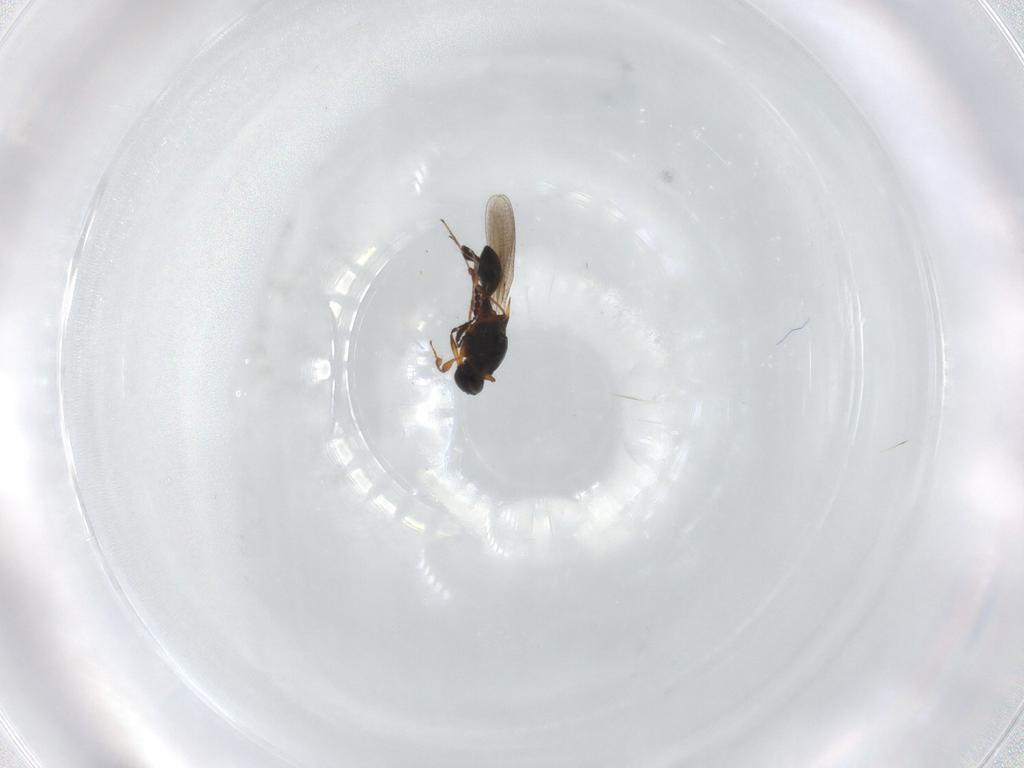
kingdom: Animalia
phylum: Arthropoda
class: Insecta
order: Hymenoptera
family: Platygastridae
